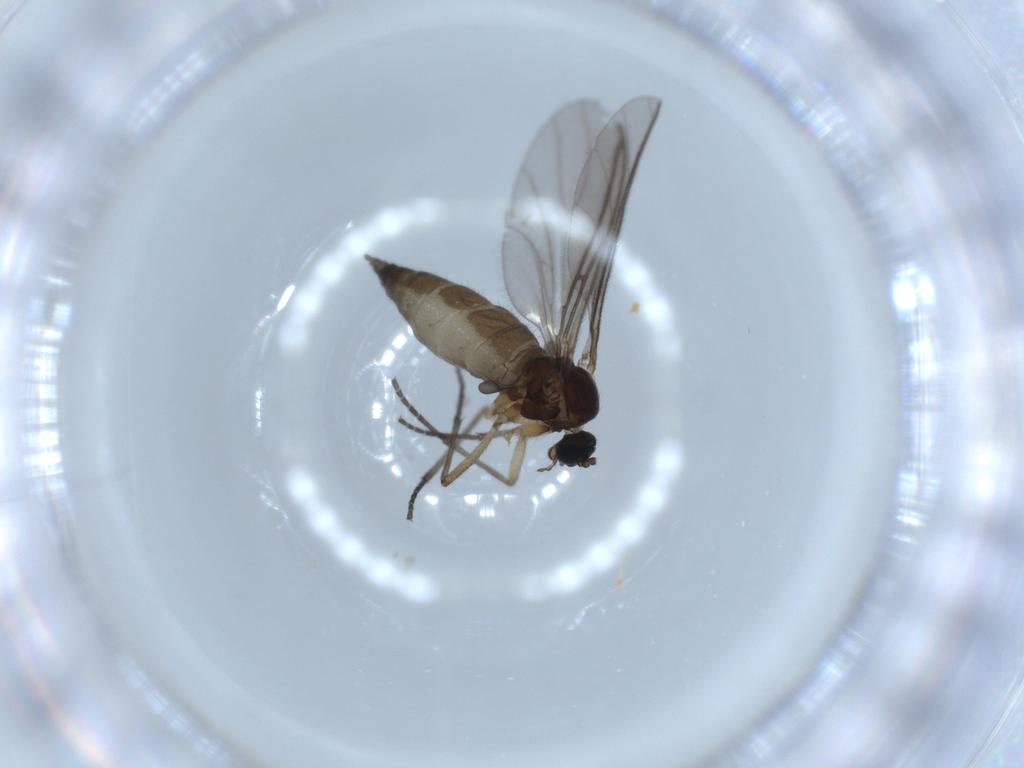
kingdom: Animalia
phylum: Arthropoda
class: Insecta
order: Diptera
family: Sciaridae
